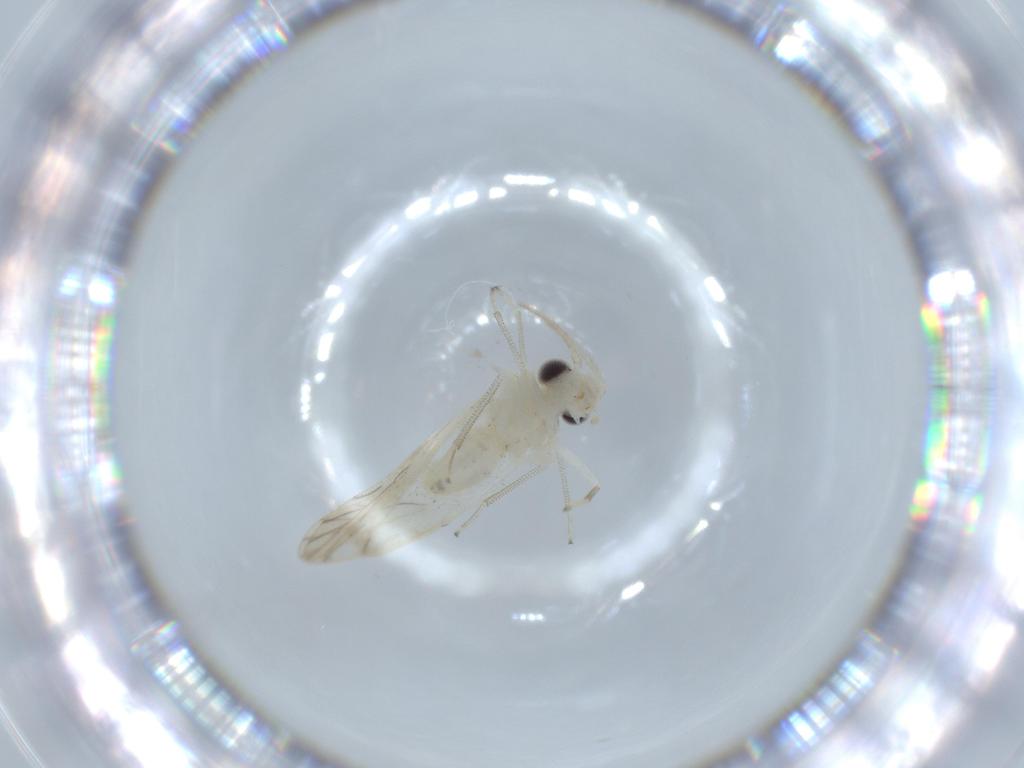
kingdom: Animalia
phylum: Arthropoda
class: Insecta
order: Psocodea
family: Caeciliusidae
